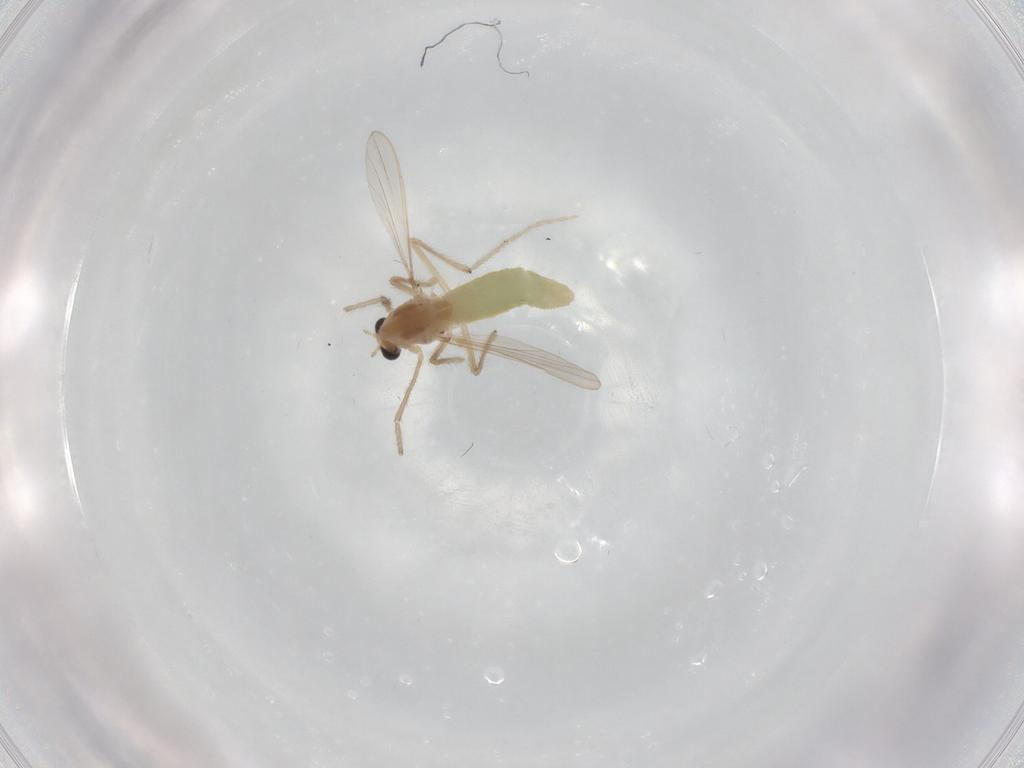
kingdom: Animalia
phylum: Arthropoda
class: Insecta
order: Diptera
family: Chironomidae
